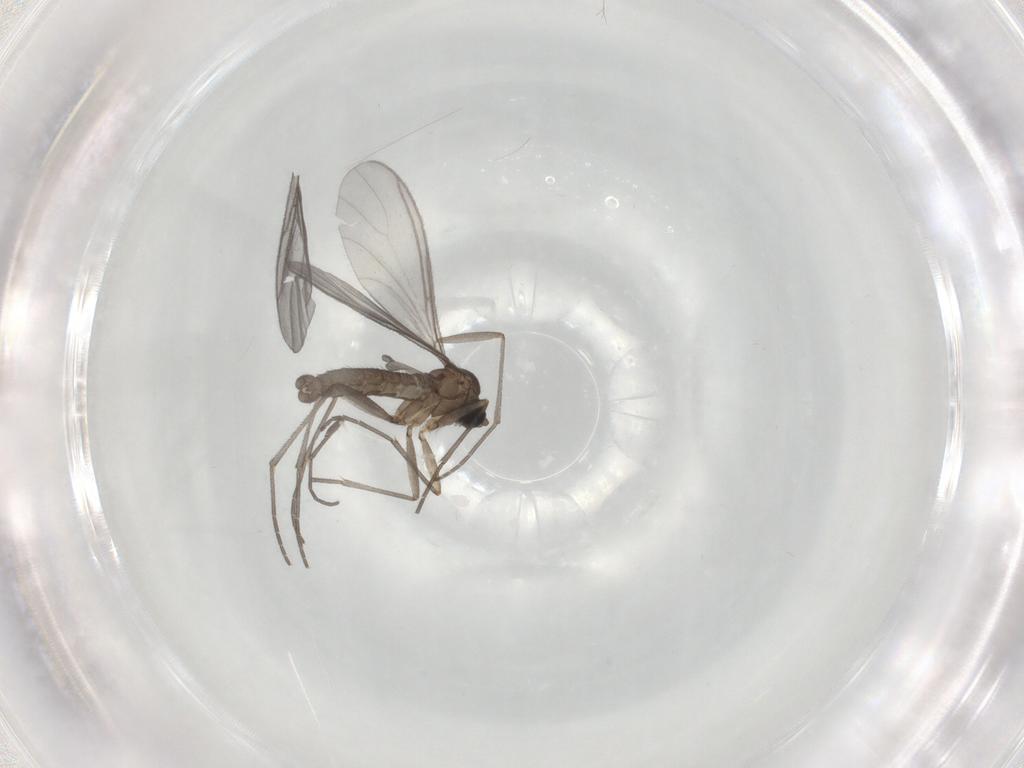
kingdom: Animalia
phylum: Arthropoda
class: Insecta
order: Diptera
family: Sciaridae
